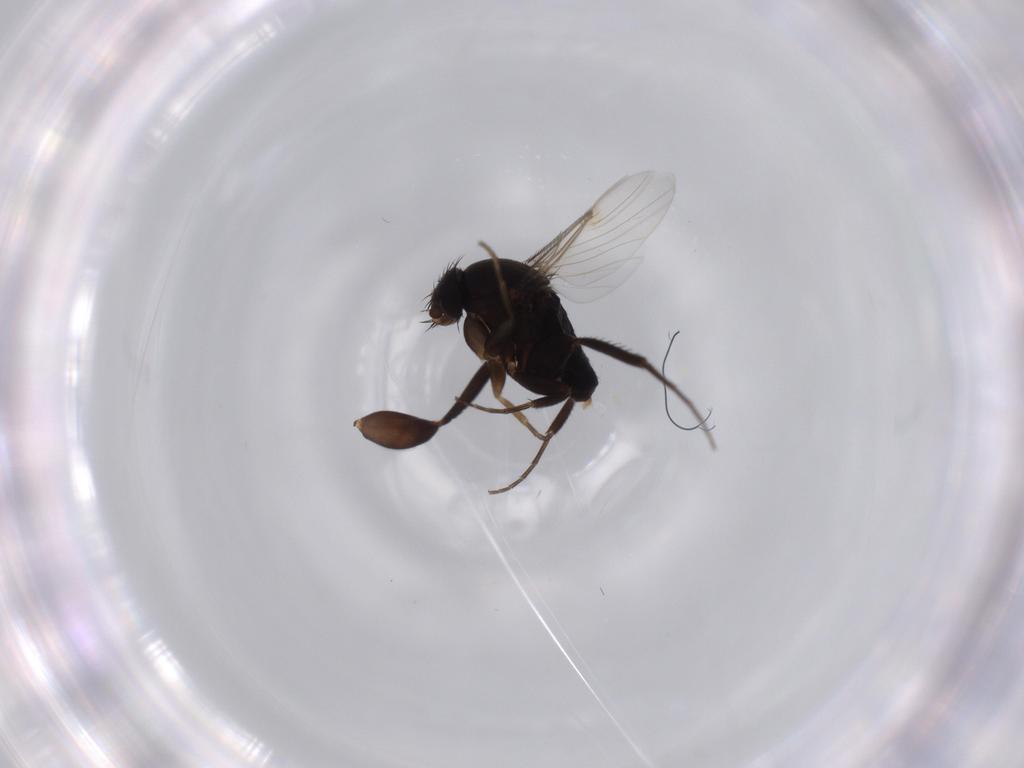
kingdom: Animalia
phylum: Arthropoda
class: Insecta
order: Diptera
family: Phoridae
